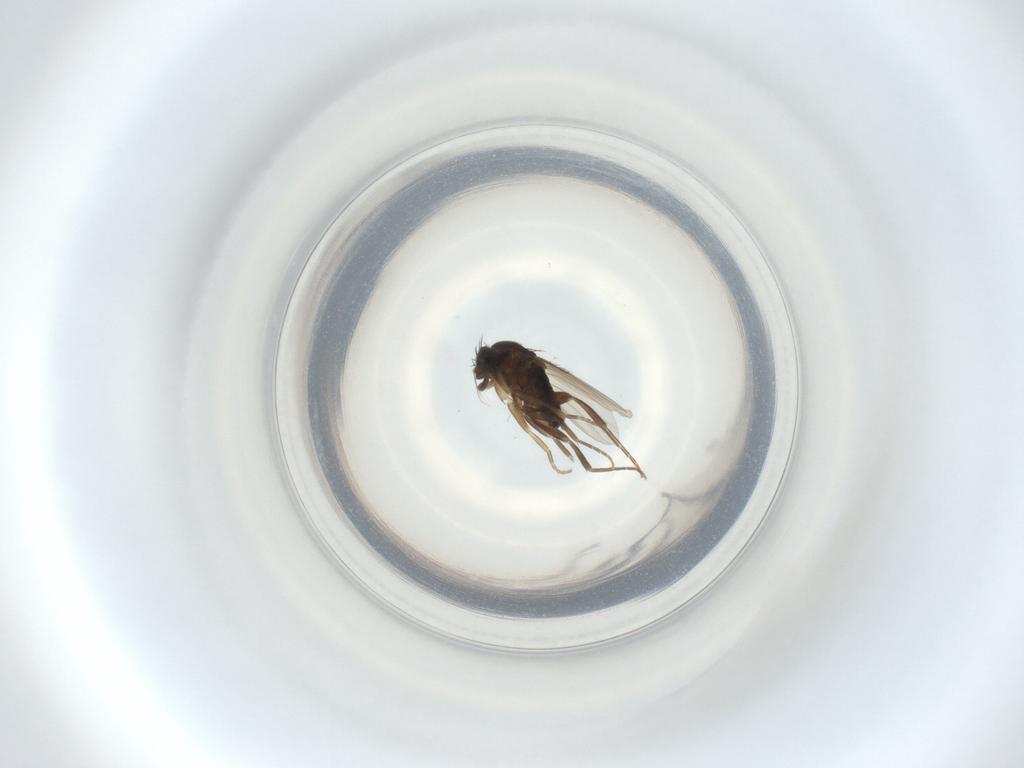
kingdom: Animalia
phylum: Arthropoda
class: Insecta
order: Diptera
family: Phoridae
